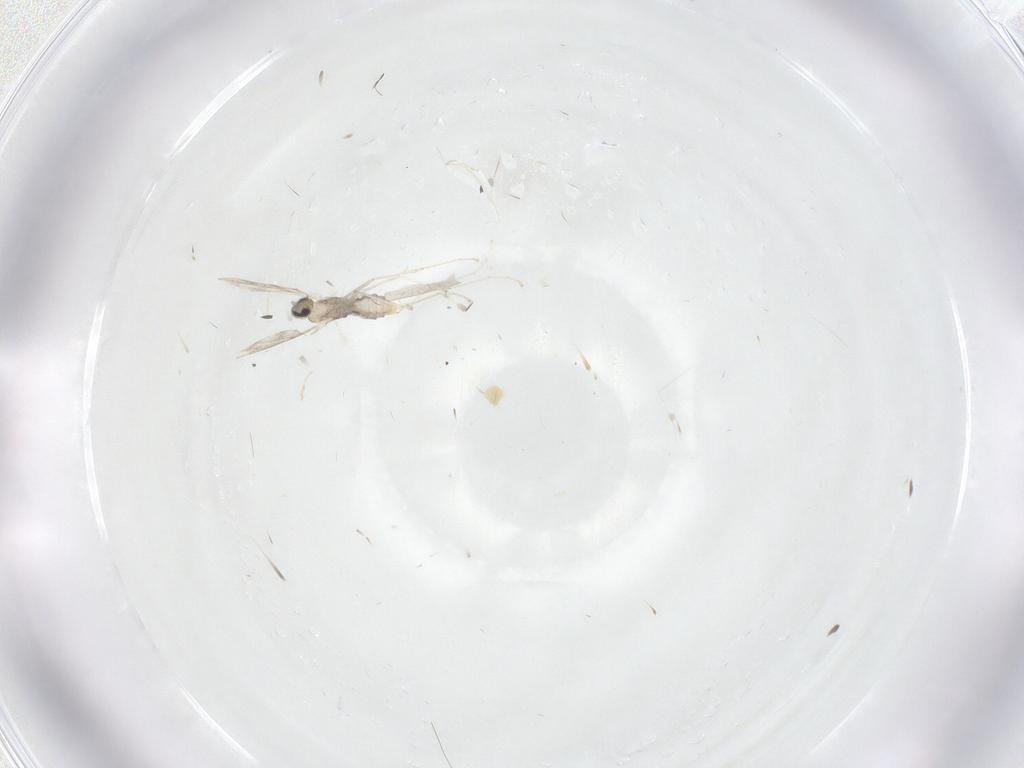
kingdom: Animalia
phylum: Arthropoda
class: Insecta
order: Diptera
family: Cecidomyiidae
